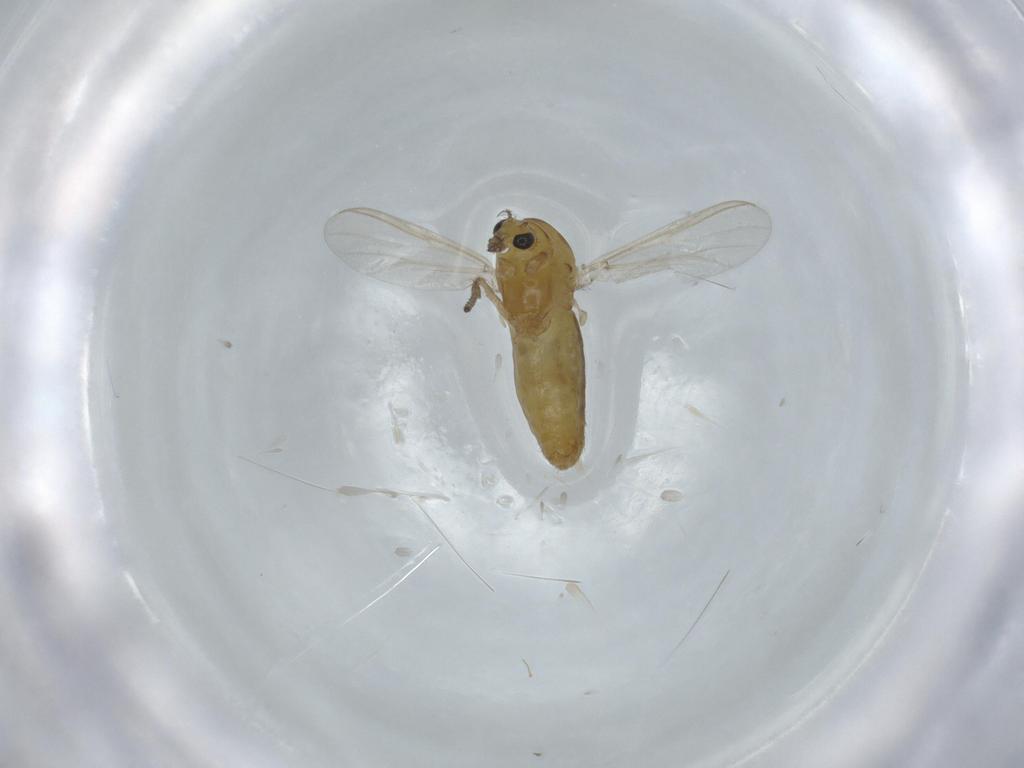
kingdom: Animalia
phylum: Arthropoda
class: Insecta
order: Diptera
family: Chironomidae
